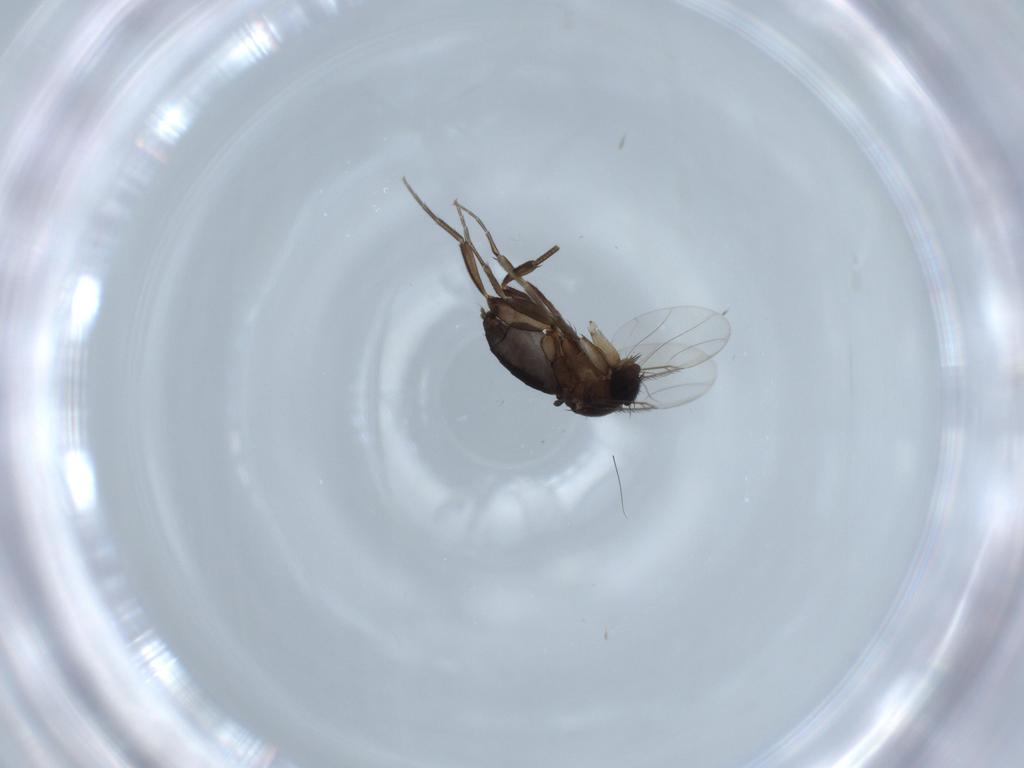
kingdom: Animalia
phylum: Arthropoda
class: Insecta
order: Diptera
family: Phoridae
